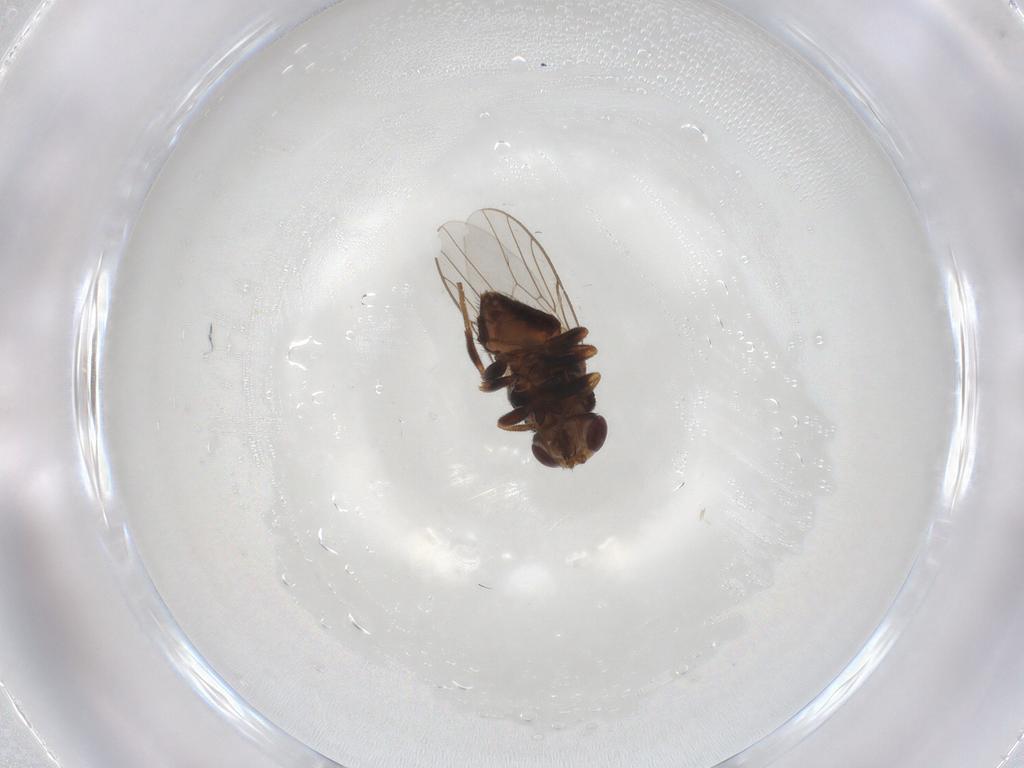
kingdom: Animalia
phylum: Arthropoda
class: Insecta
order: Diptera
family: Chloropidae
